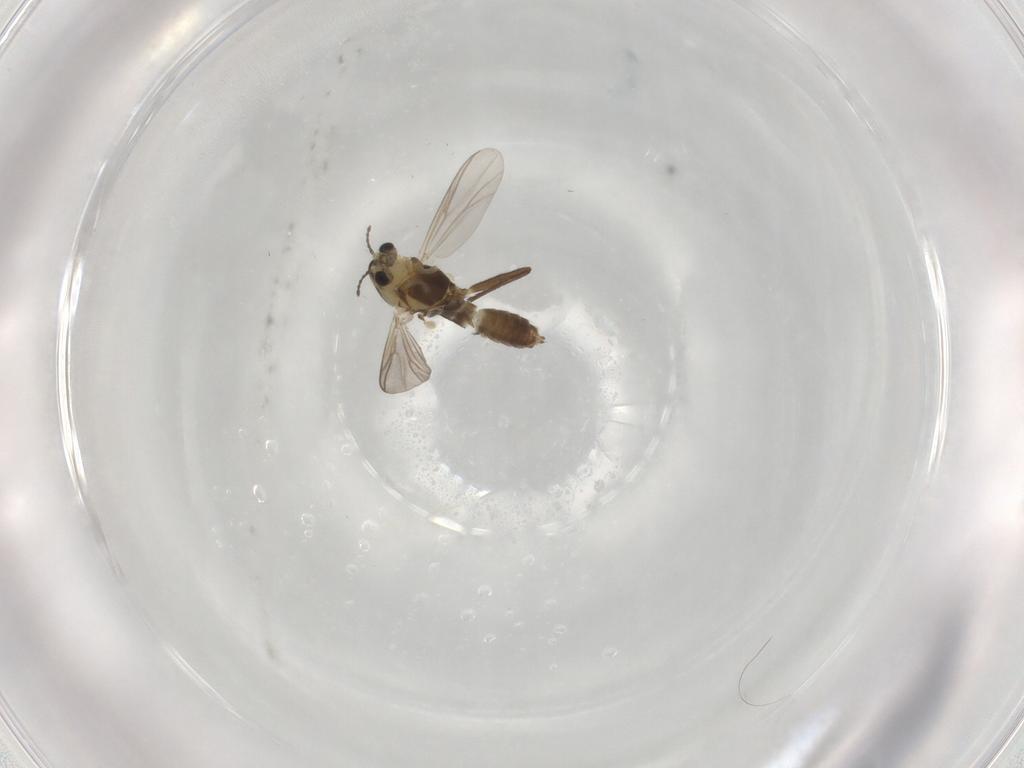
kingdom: Animalia
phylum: Arthropoda
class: Insecta
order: Diptera
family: Chironomidae
